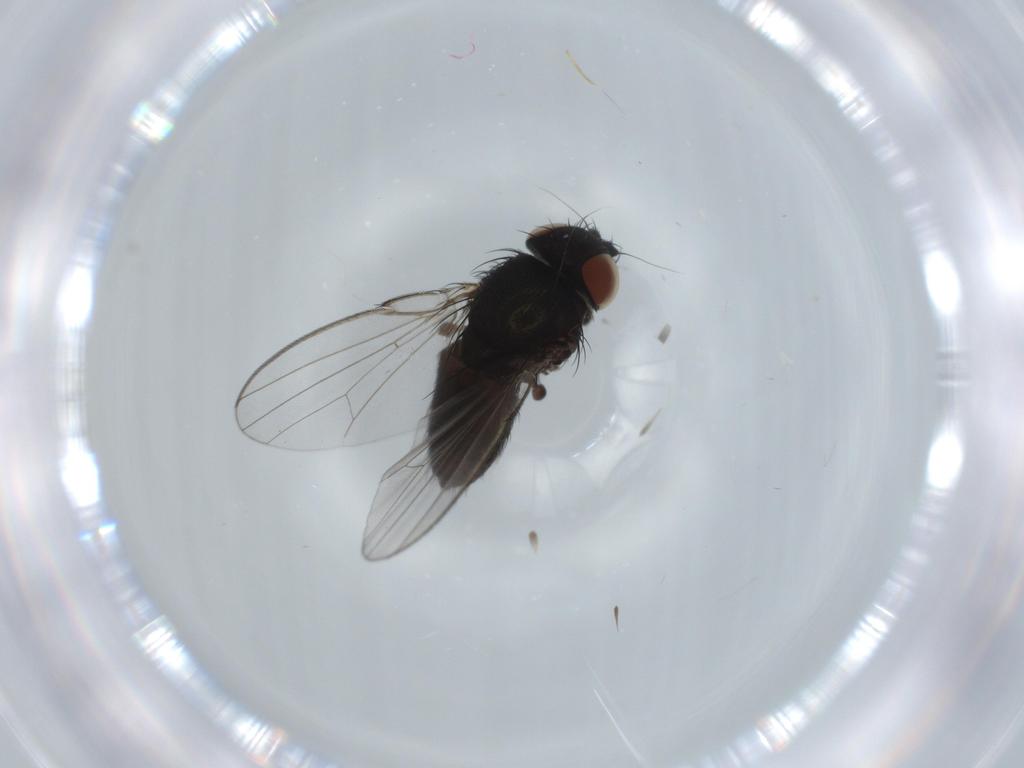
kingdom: Animalia
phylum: Arthropoda
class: Insecta
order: Diptera
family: Milichiidae
